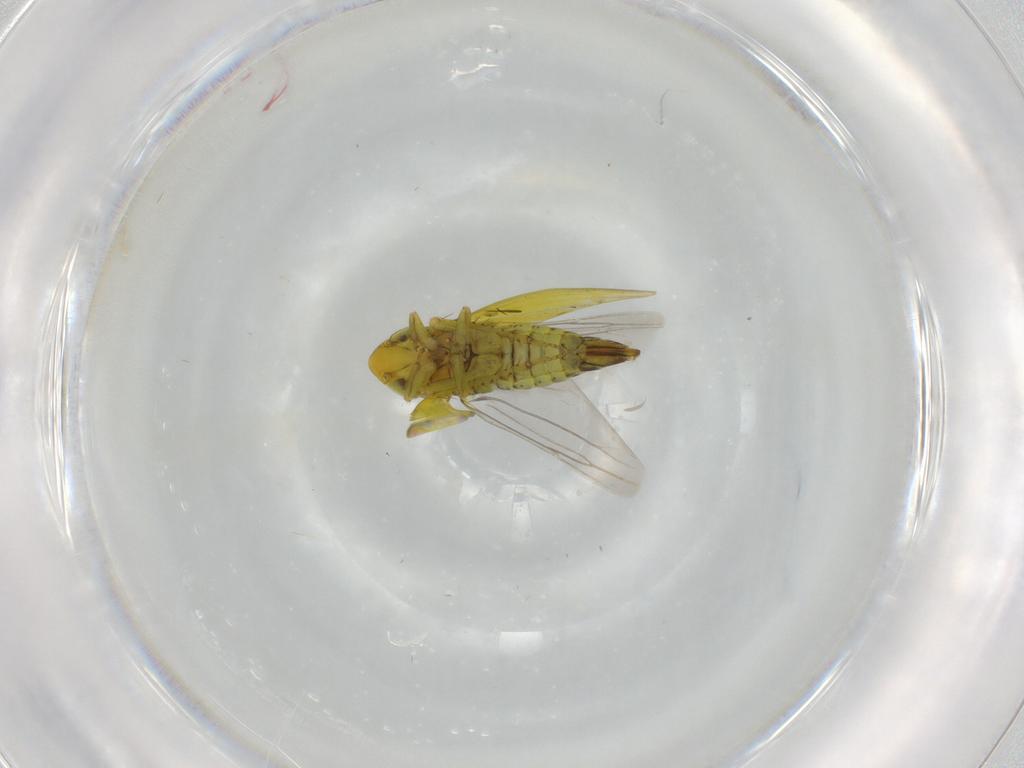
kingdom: Animalia
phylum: Arthropoda
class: Insecta
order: Hemiptera
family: Cicadellidae
